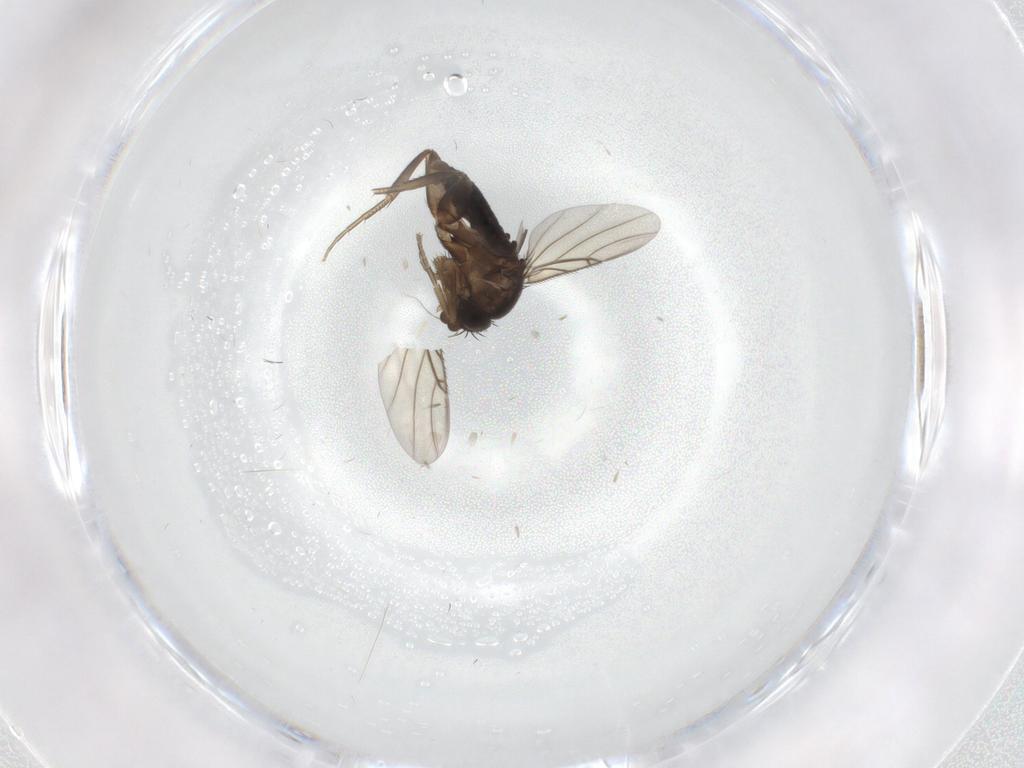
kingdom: Animalia
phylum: Arthropoda
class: Insecta
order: Diptera
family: Phoridae
